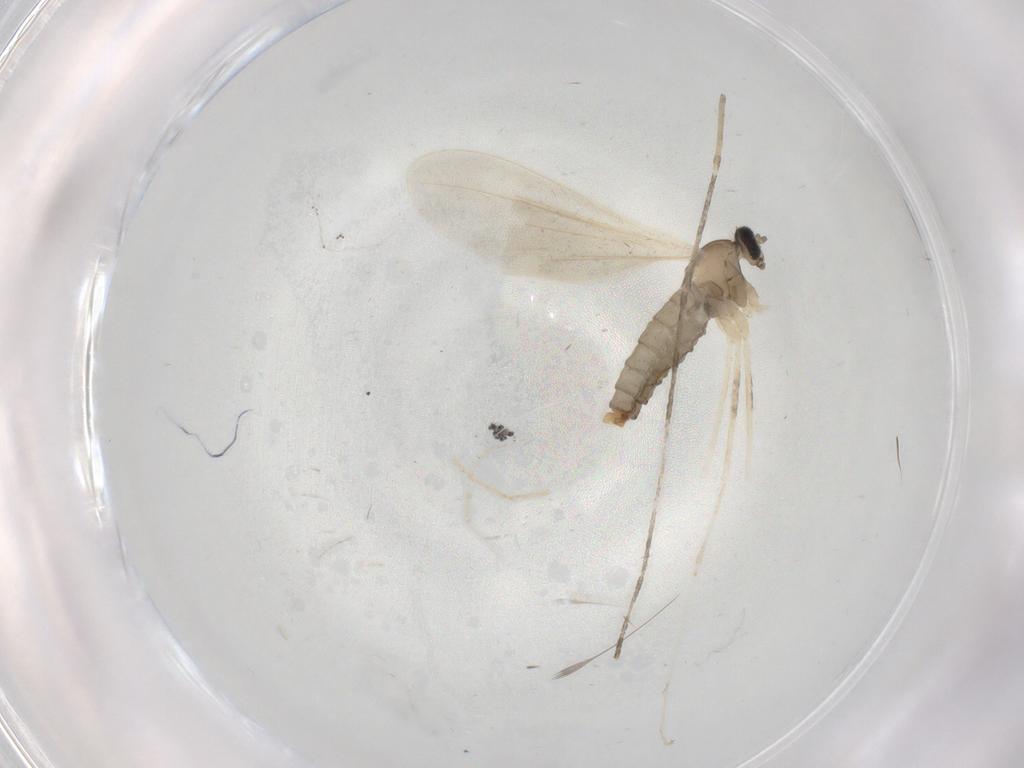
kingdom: Animalia
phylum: Arthropoda
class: Insecta
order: Diptera
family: Cecidomyiidae
